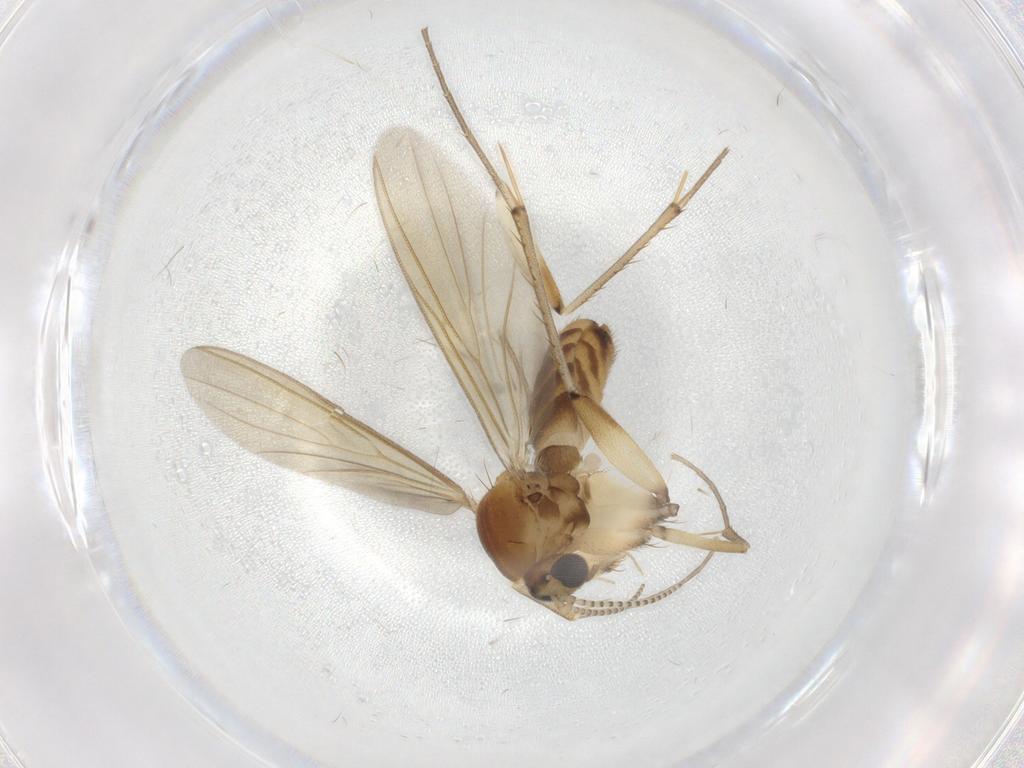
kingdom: Animalia
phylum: Arthropoda
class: Insecta
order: Diptera
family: Mycetophilidae
